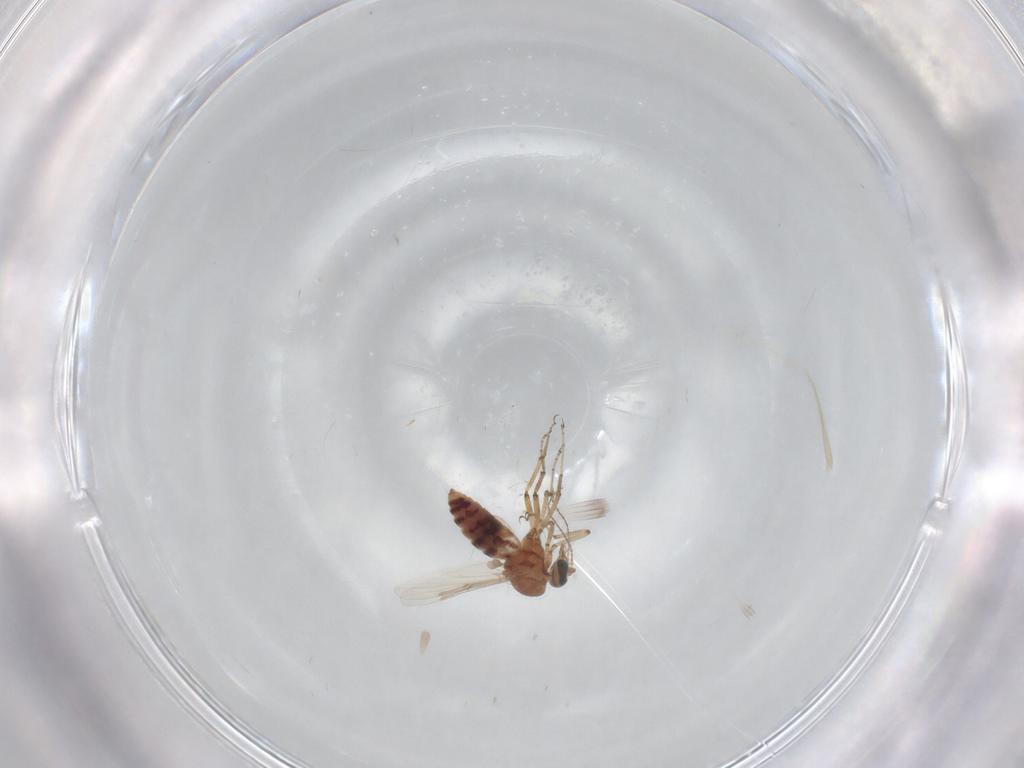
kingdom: Animalia
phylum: Arthropoda
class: Insecta
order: Diptera
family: Ceratopogonidae
